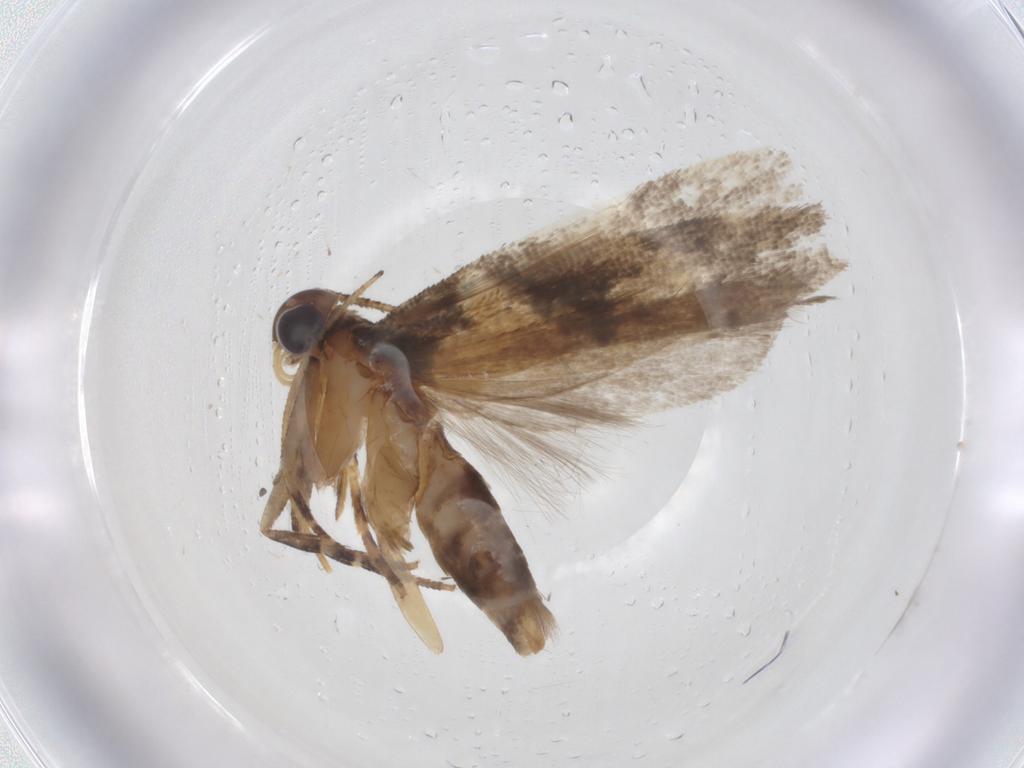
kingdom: Animalia
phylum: Arthropoda
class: Insecta
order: Lepidoptera
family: Gelechiidae
